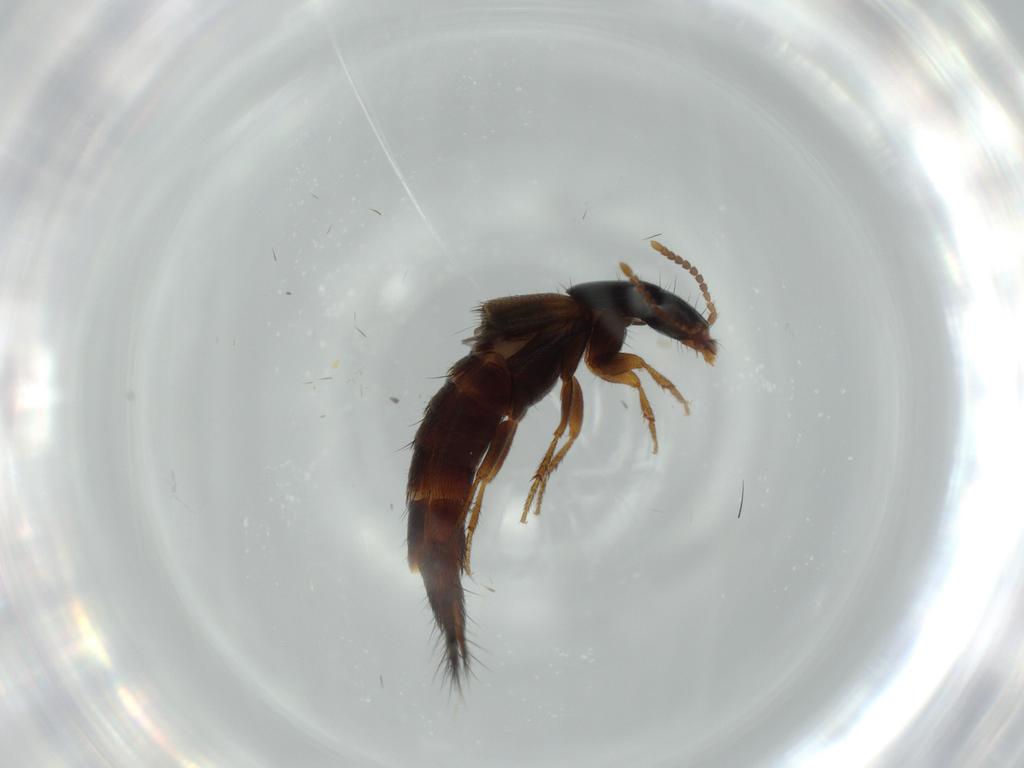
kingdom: Animalia
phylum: Arthropoda
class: Insecta
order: Coleoptera
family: Staphylinidae
